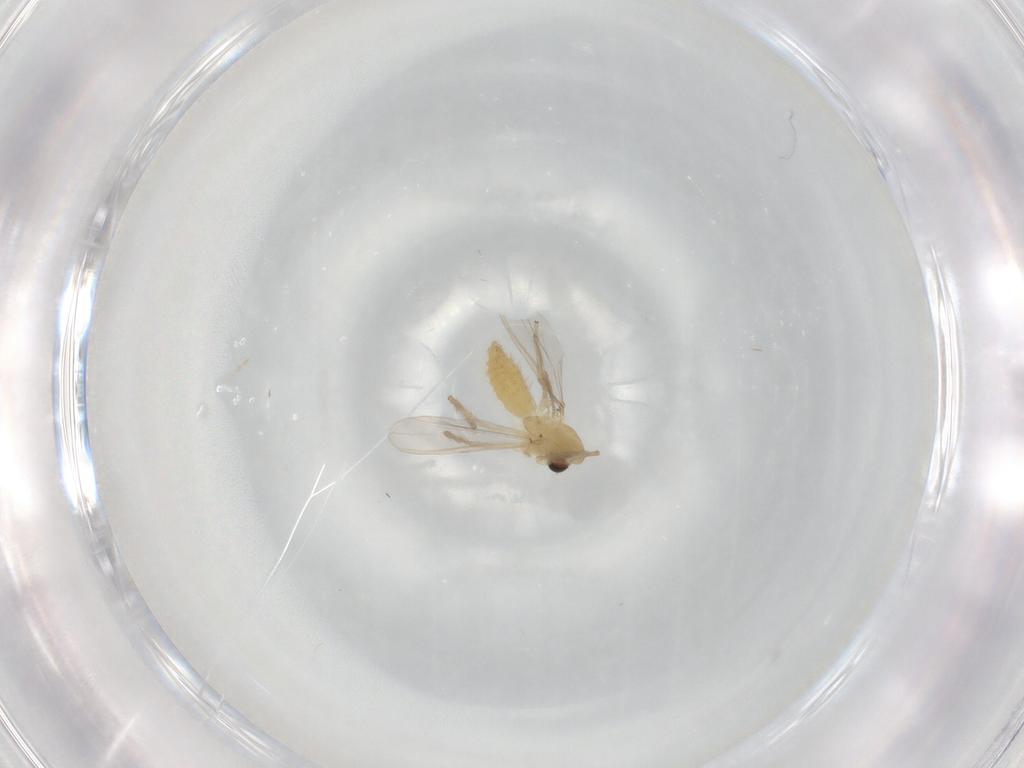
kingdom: Animalia
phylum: Arthropoda
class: Insecta
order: Diptera
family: Chironomidae
